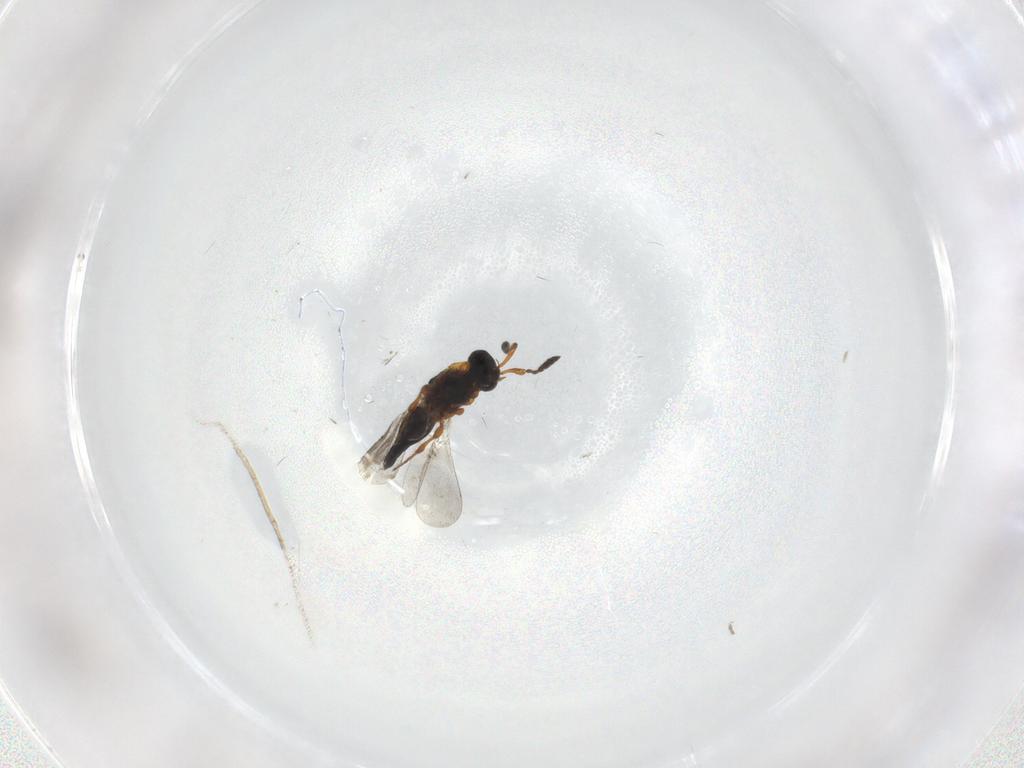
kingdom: Animalia
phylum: Arthropoda
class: Insecta
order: Hymenoptera
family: Platygastridae
